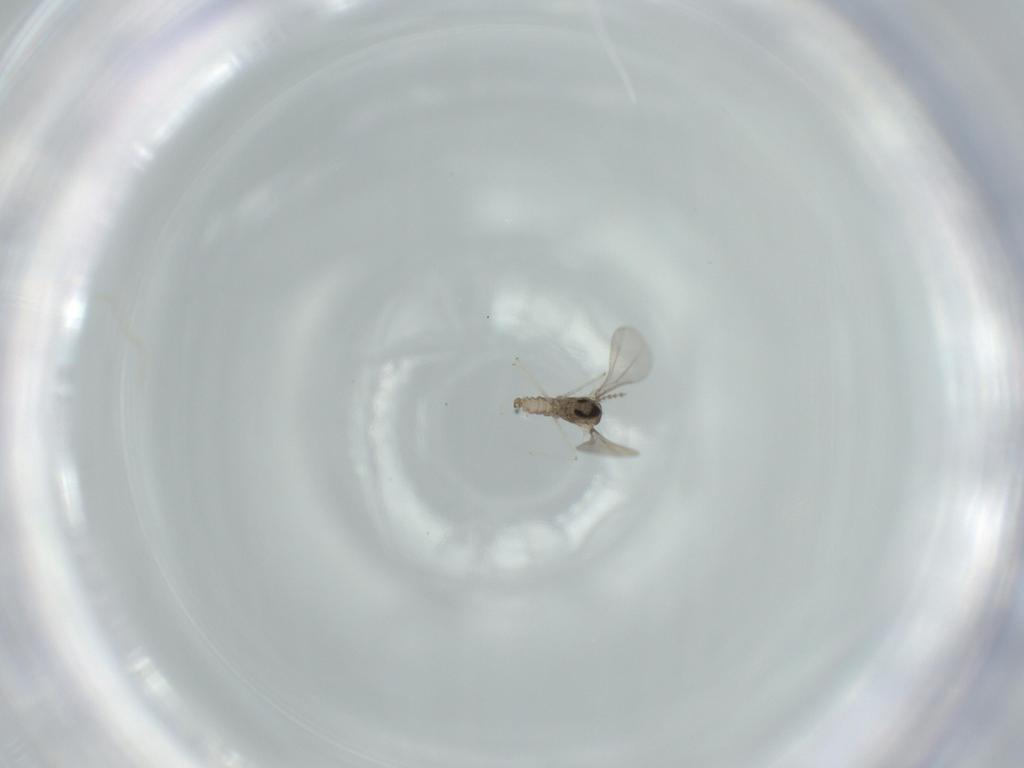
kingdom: Animalia
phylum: Arthropoda
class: Insecta
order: Diptera
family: Cecidomyiidae
